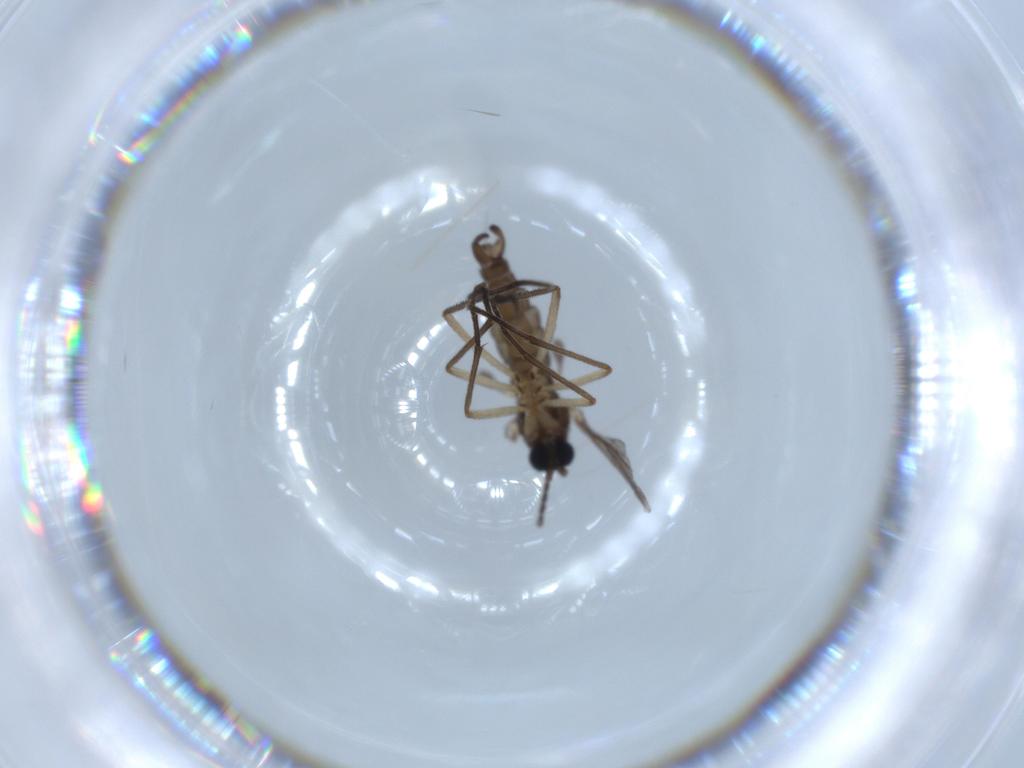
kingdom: Animalia
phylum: Arthropoda
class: Insecta
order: Diptera
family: Sciaridae
